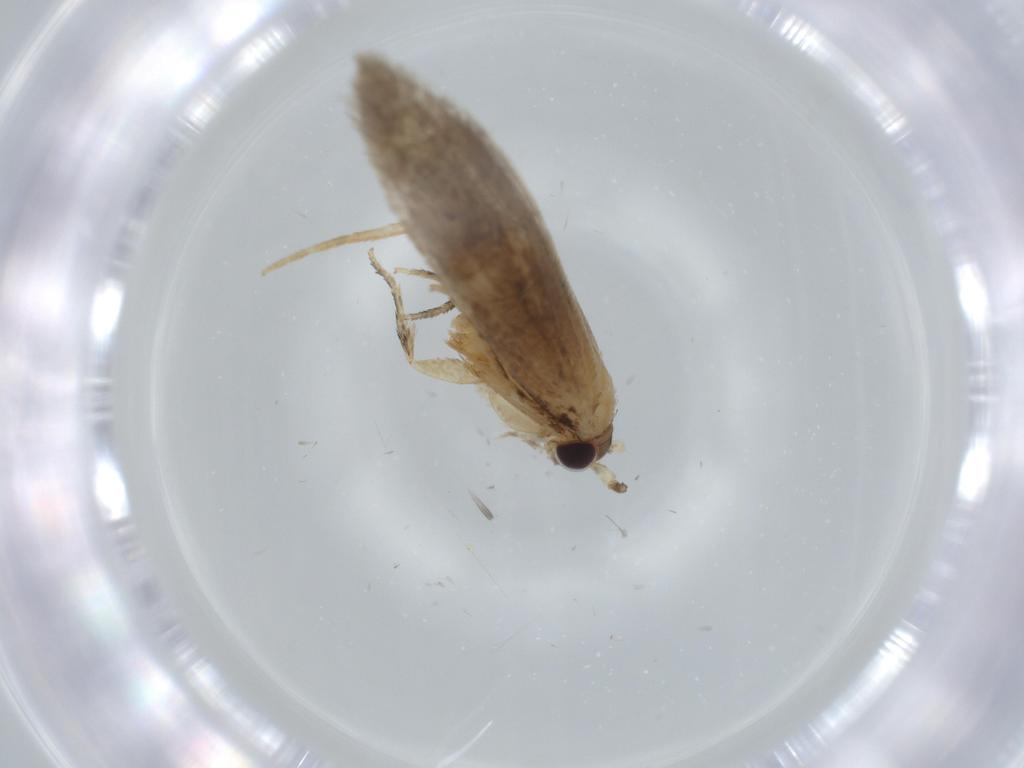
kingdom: Animalia
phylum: Arthropoda
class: Insecta
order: Lepidoptera
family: Tineidae
